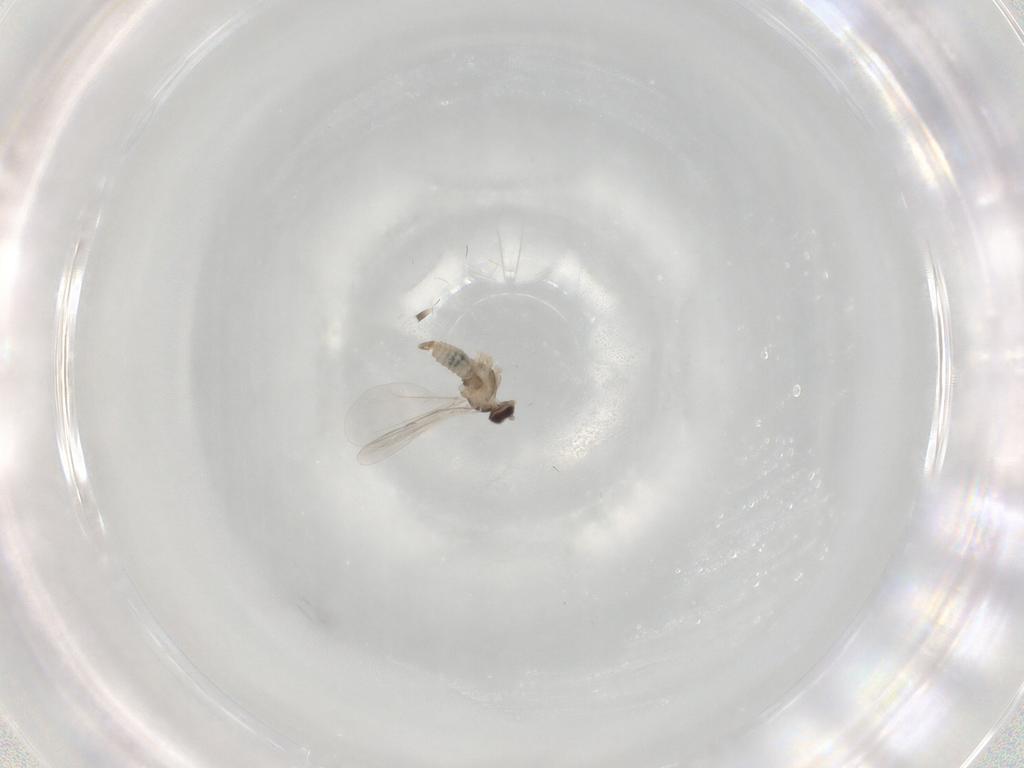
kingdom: Animalia
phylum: Arthropoda
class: Insecta
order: Diptera
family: Cecidomyiidae
